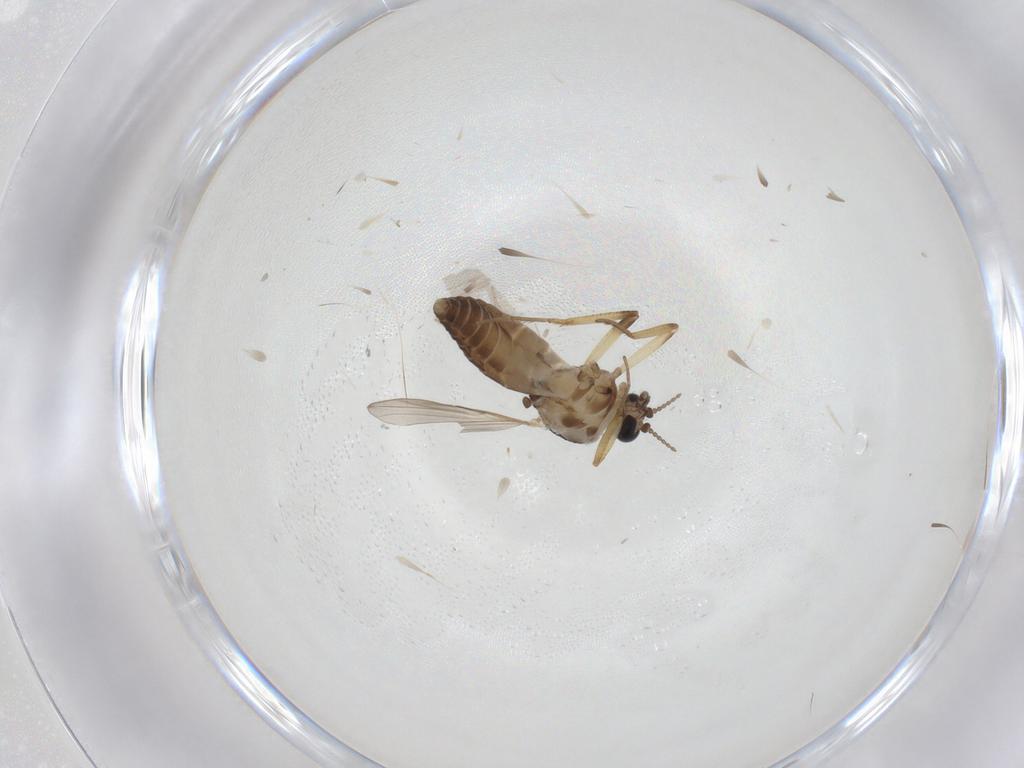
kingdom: Animalia
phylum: Arthropoda
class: Insecta
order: Diptera
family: Ceratopogonidae
